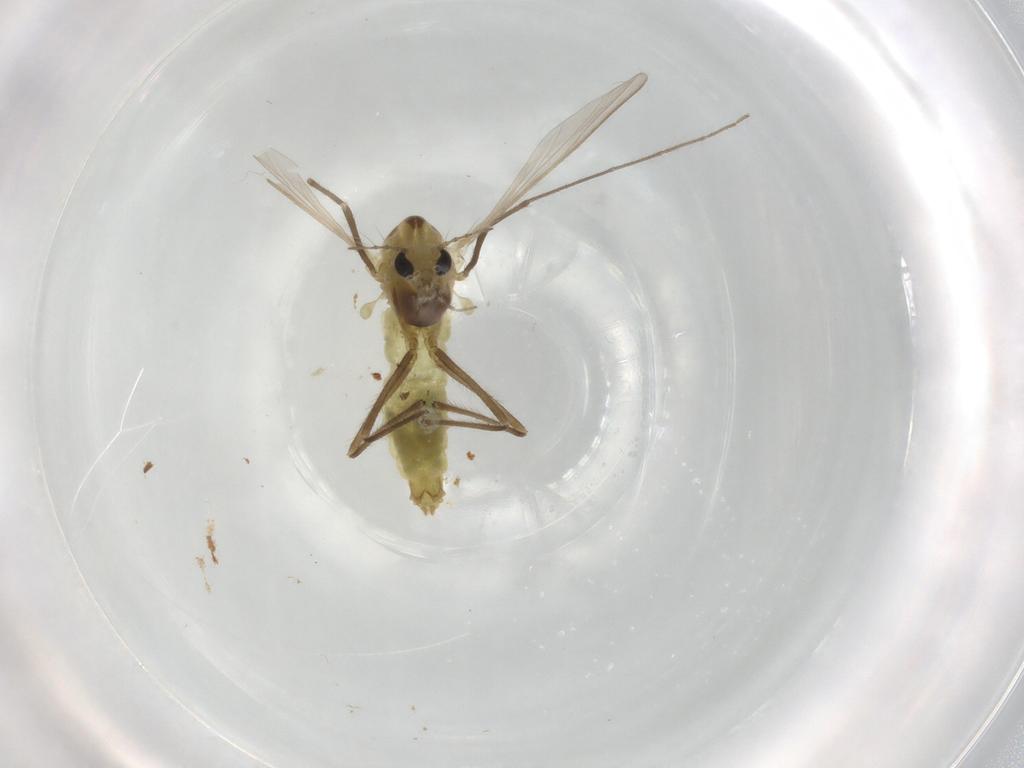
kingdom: Animalia
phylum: Arthropoda
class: Insecta
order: Diptera
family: Chironomidae
